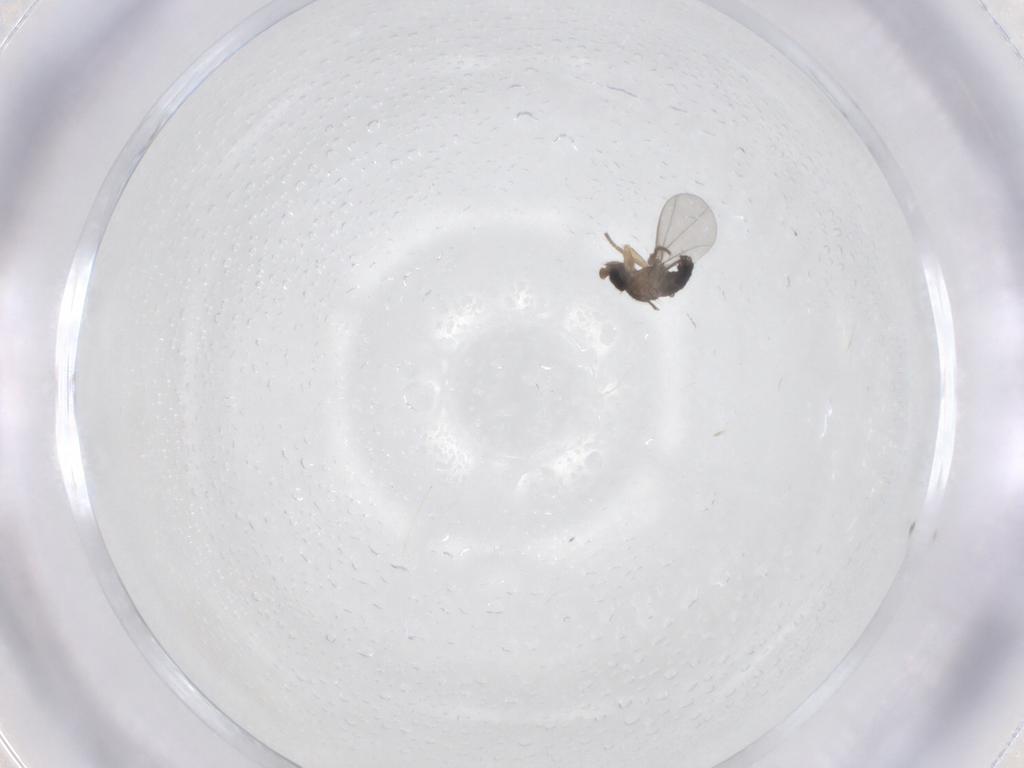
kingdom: Animalia
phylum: Arthropoda
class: Insecta
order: Diptera
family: Phoridae
